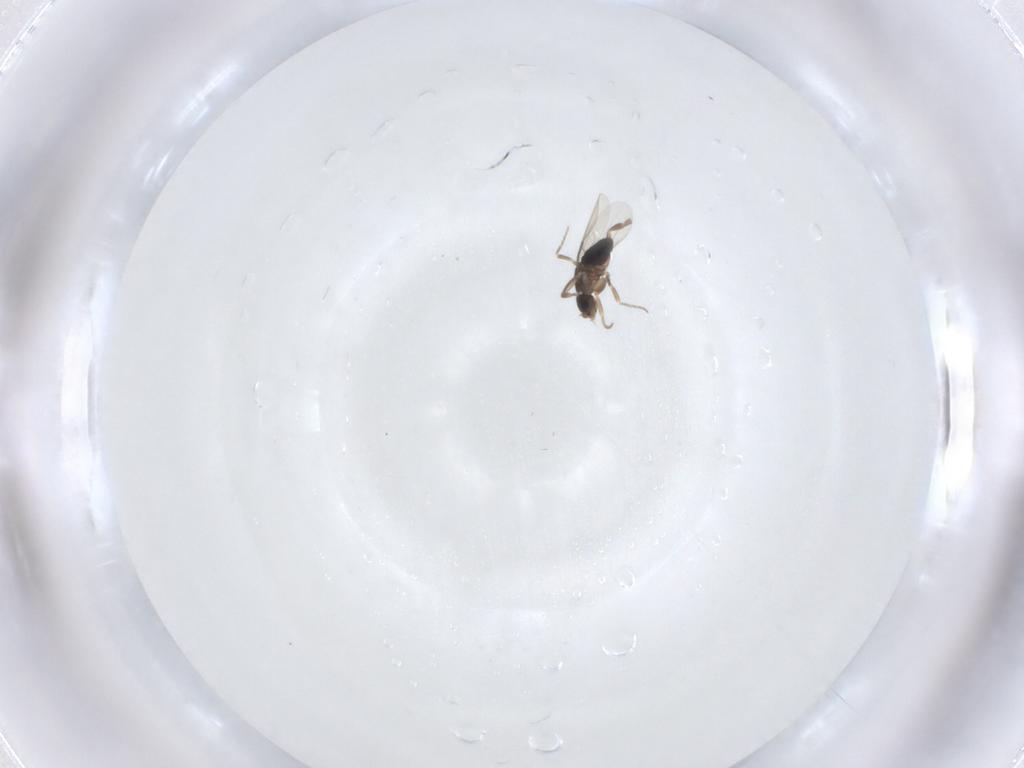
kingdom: Animalia
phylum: Arthropoda
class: Insecta
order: Diptera
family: Phoridae
